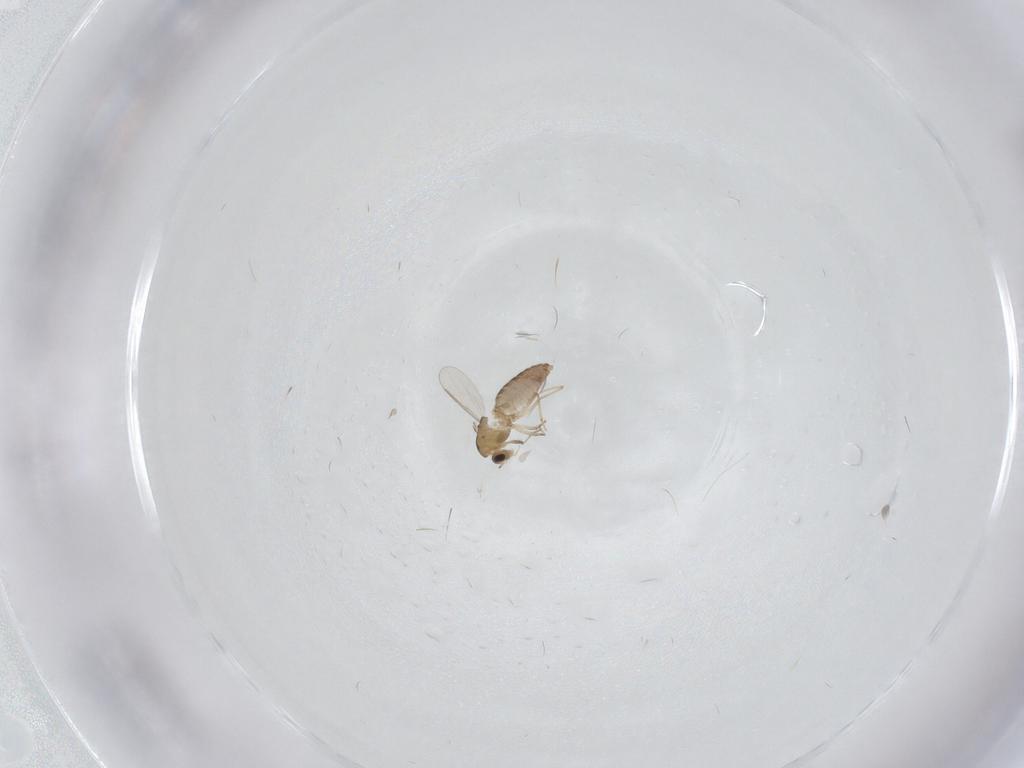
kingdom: Animalia
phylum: Arthropoda
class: Insecta
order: Diptera
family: Chironomidae
